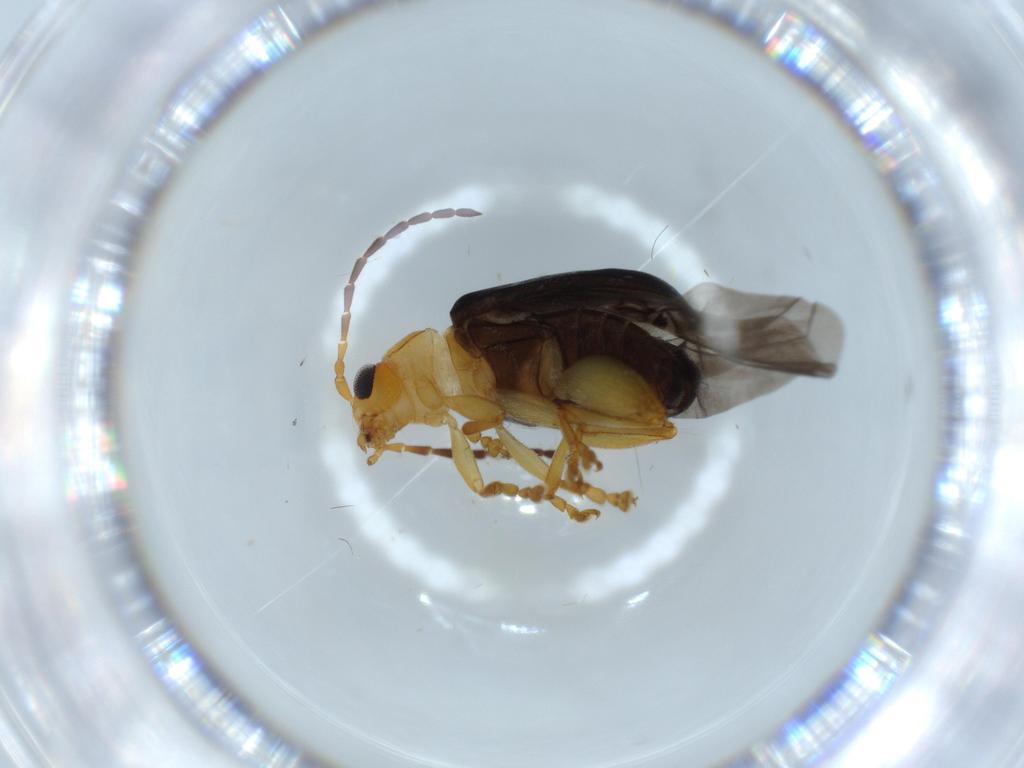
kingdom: Animalia
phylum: Arthropoda
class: Insecta
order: Coleoptera
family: Chrysomelidae
